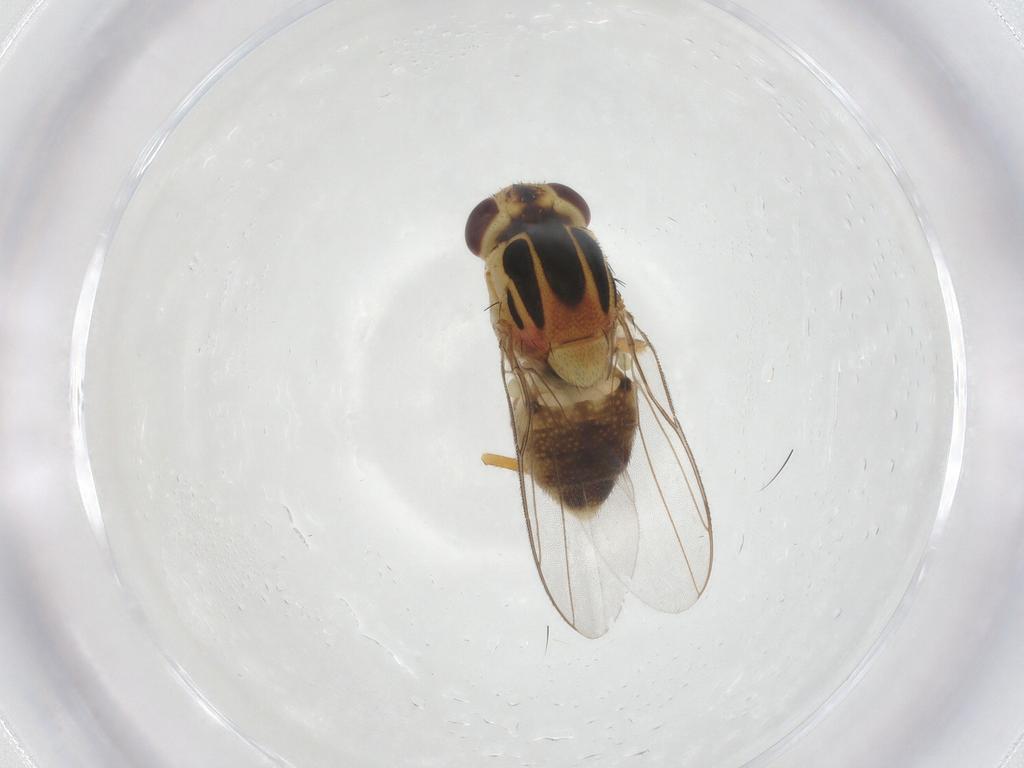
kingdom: Animalia
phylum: Arthropoda
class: Insecta
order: Diptera
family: Chloropidae
